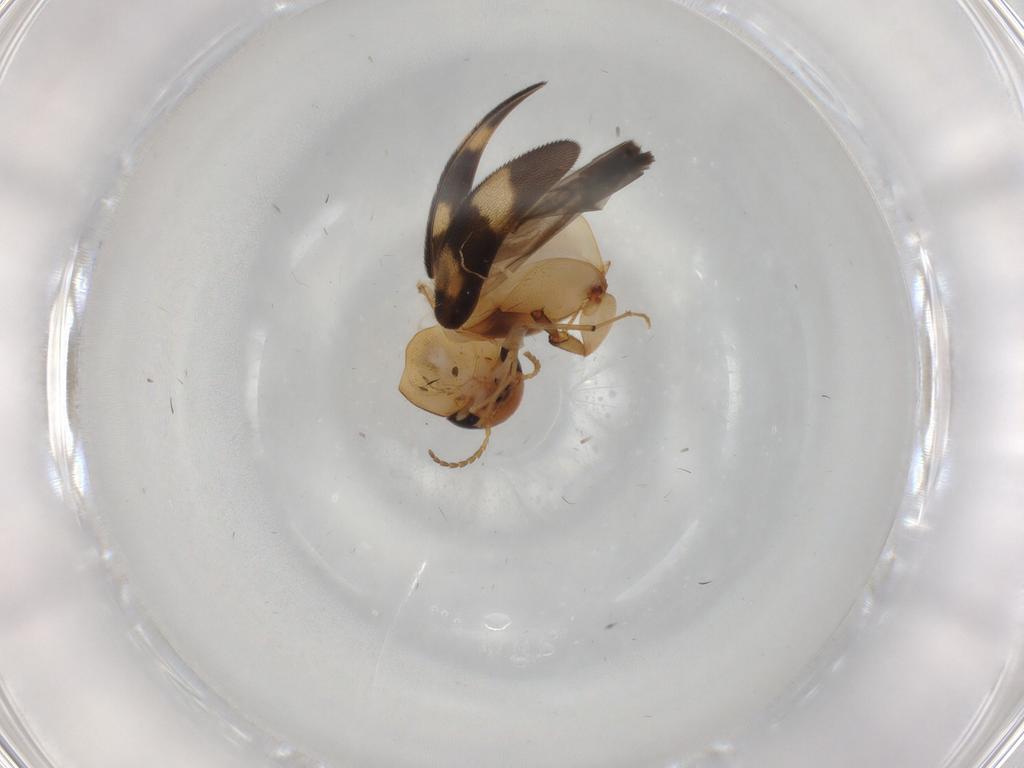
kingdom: Animalia
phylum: Arthropoda
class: Insecta
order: Coleoptera
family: Mordellidae
